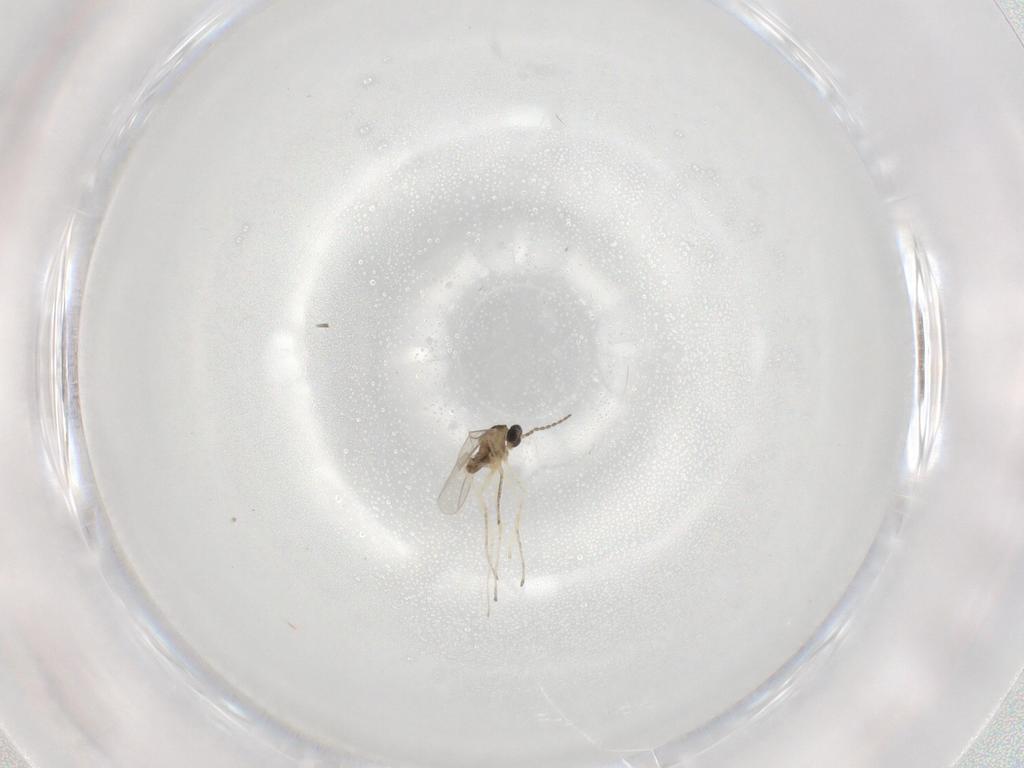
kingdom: Animalia
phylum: Arthropoda
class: Insecta
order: Diptera
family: Cecidomyiidae
